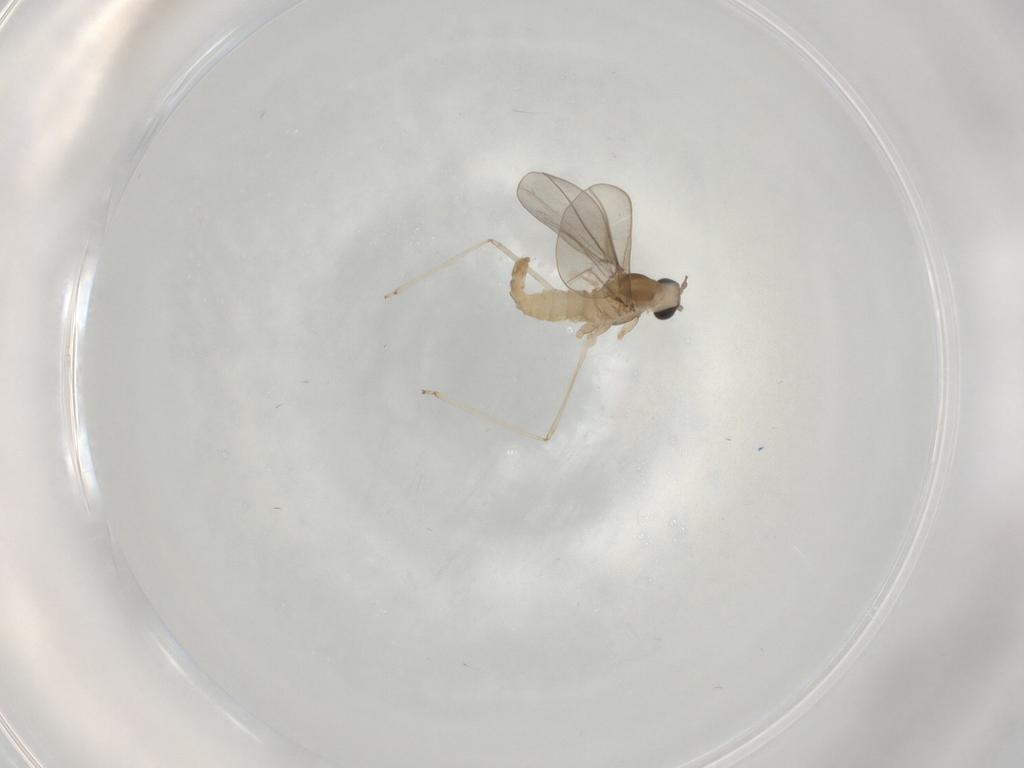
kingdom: Animalia
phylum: Arthropoda
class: Insecta
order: Diptera
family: Cecidomyiidae
